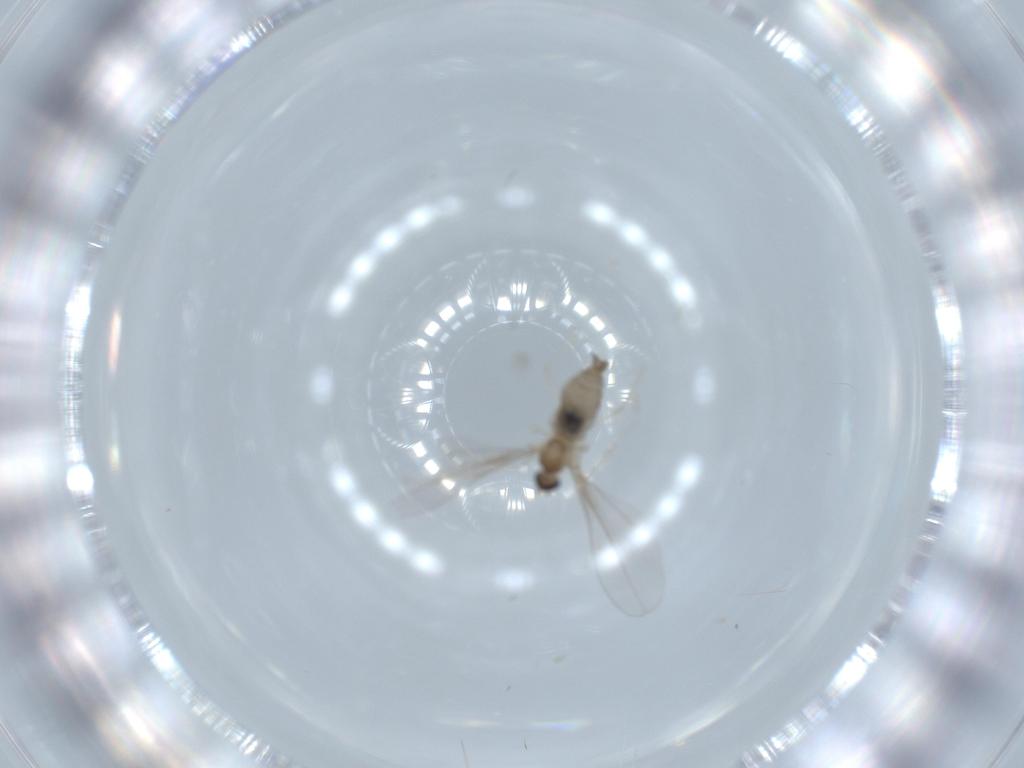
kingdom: Animalia
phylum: Arthropoda
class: Insecta
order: Diptera
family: Sciaridae
